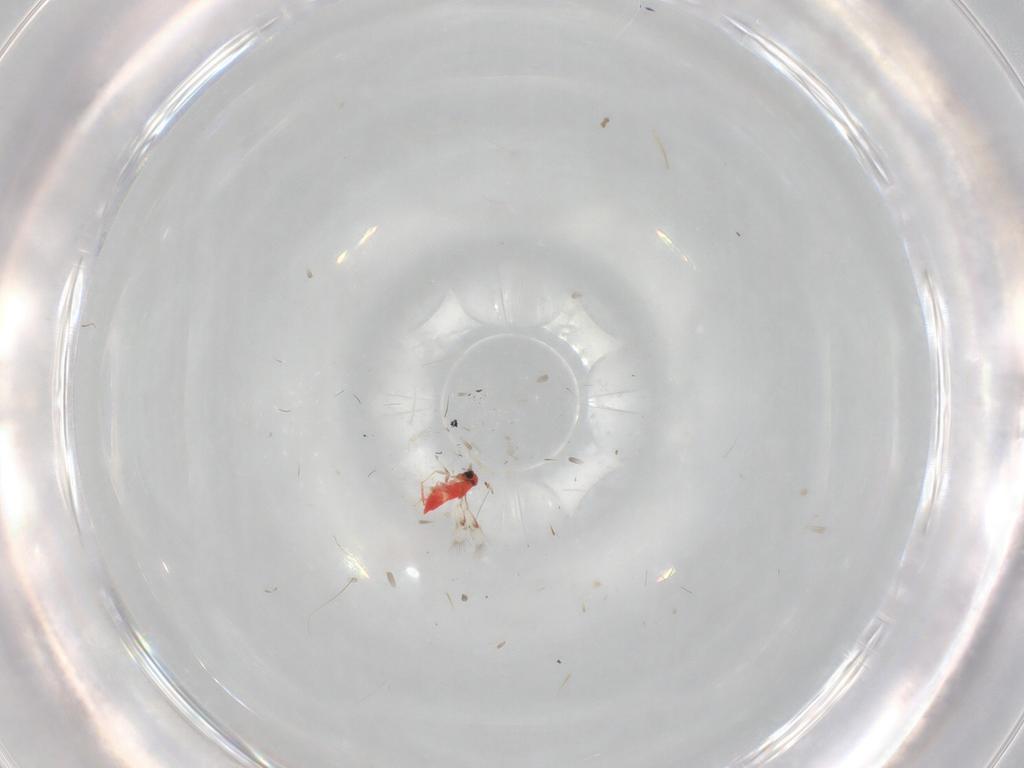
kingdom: Animalia
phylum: Arthropoda
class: Insecta
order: Hymenoptera
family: Trichogrammatidae
